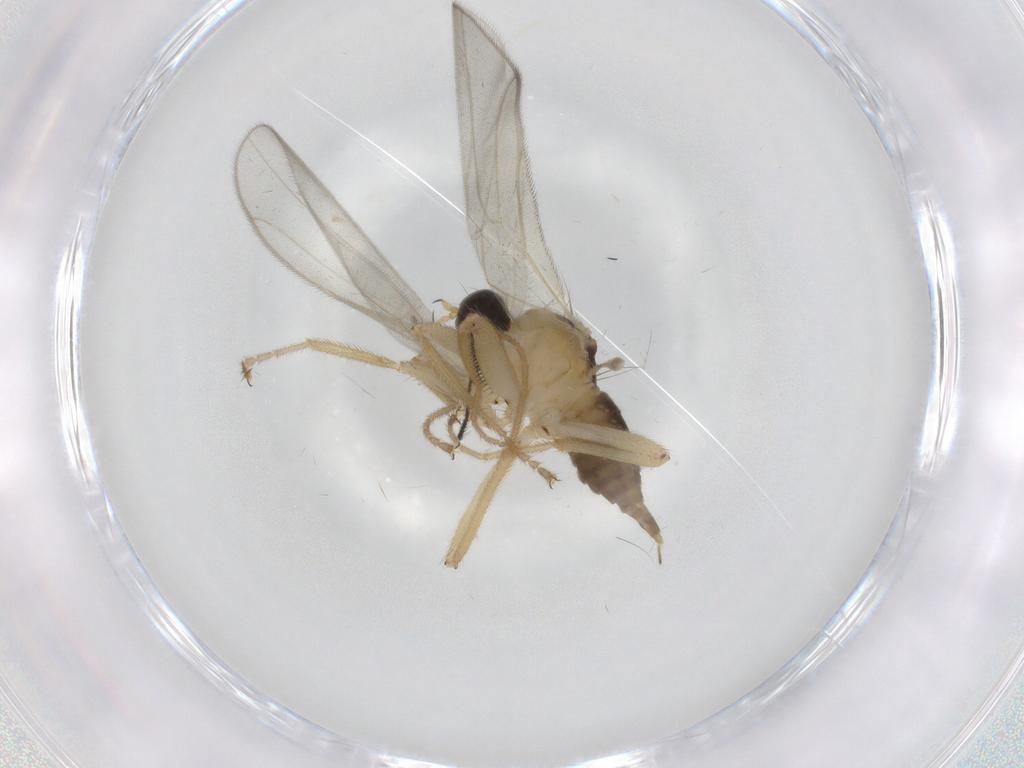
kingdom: Animalia
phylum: Arthropoda
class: Insecta
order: Diptera
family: Hybotidae
